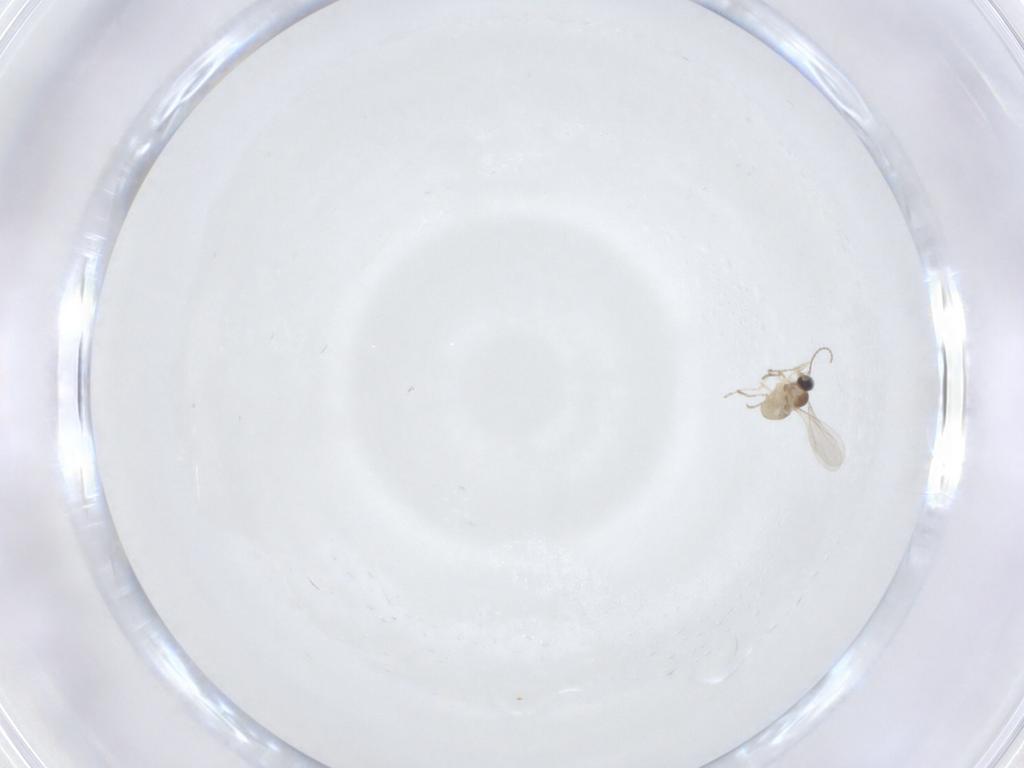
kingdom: Animalia
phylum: Arthropoda
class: Insecta
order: Diptera
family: Cecidomyiidae
